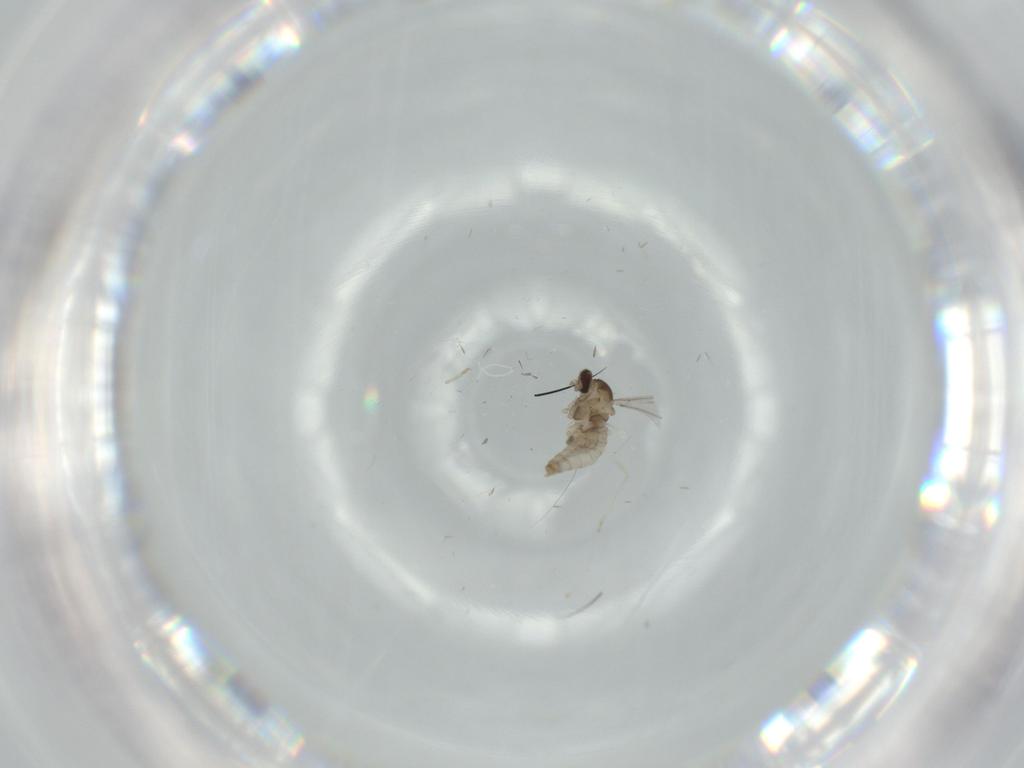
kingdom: Animalia
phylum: Arthropoda
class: Insecta
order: Diptera
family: Cecidomyiidae
